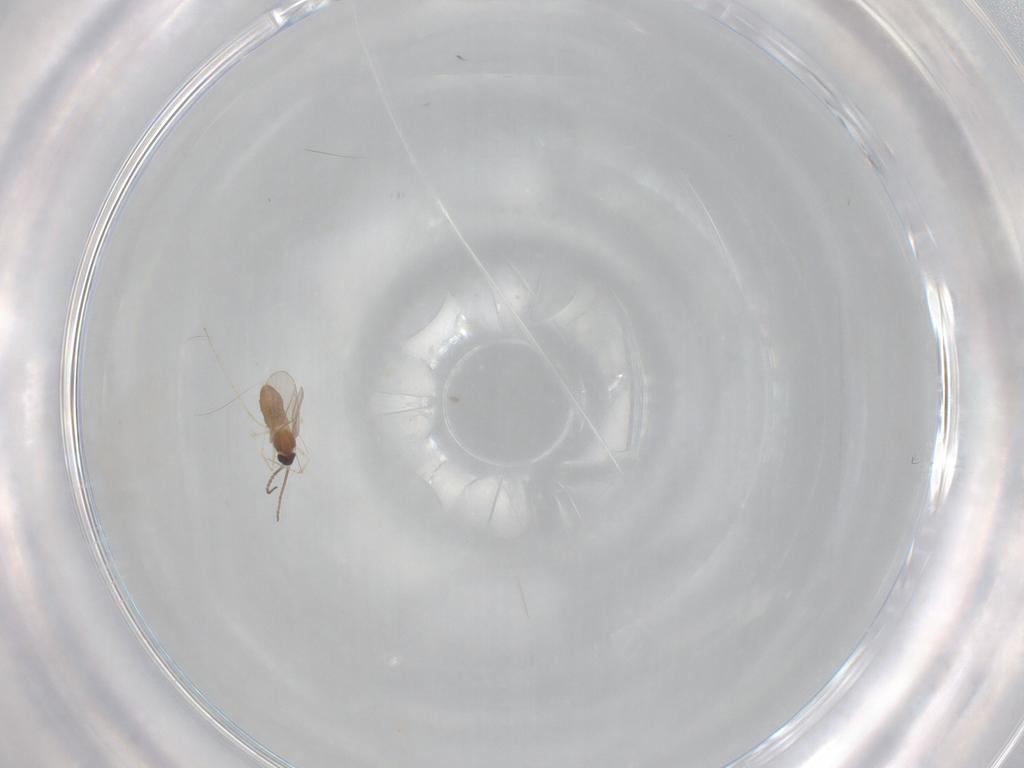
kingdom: Animalia
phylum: Arthropoda
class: Insecta
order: Diptera
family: Cecidomyiidae
